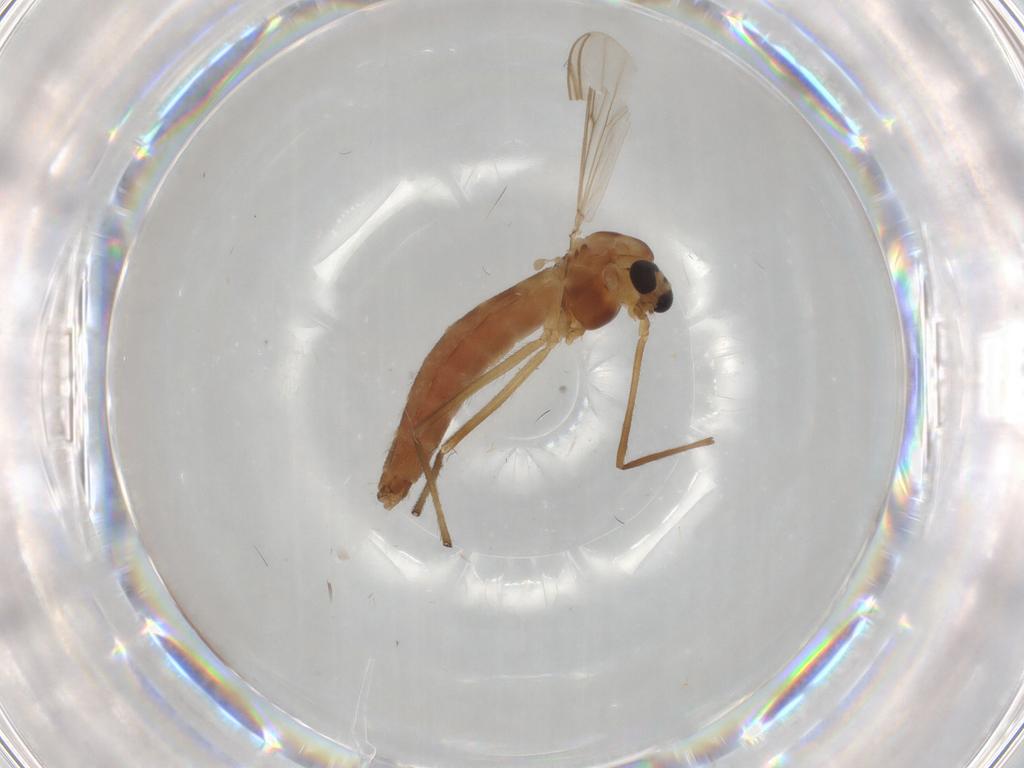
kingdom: Animalia
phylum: Arthropoda
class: Insecta
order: Diptera
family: Chironomidae
